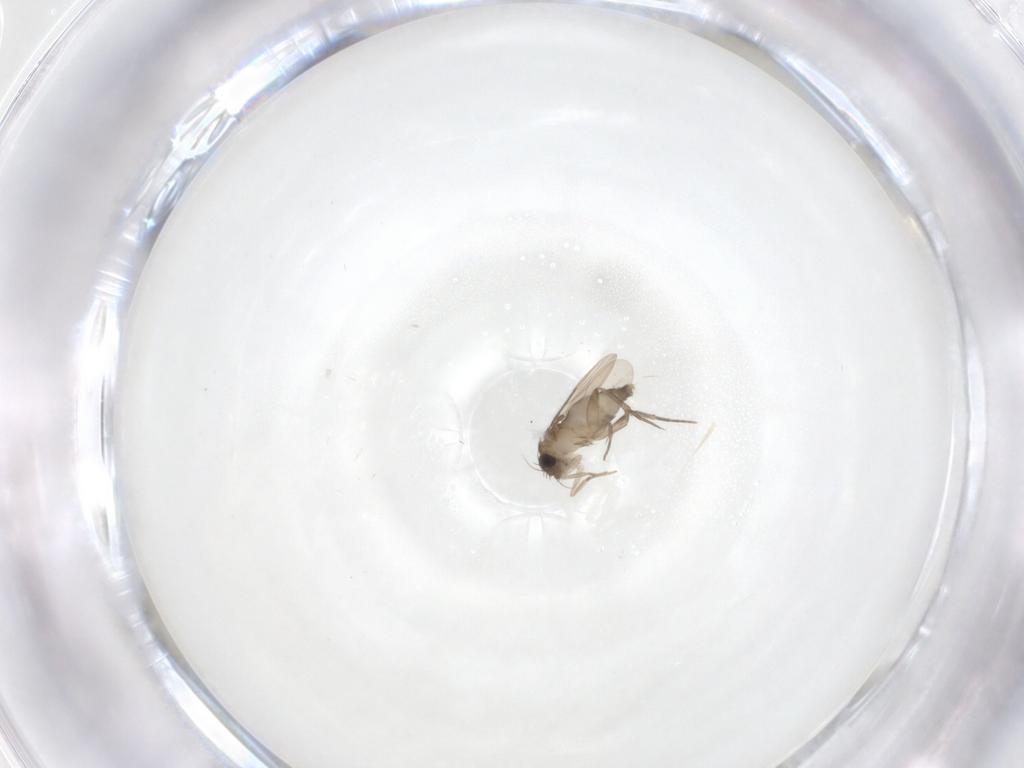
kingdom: Animalia
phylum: Arthropoda
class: Insecta
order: Diptera
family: Phoridae
